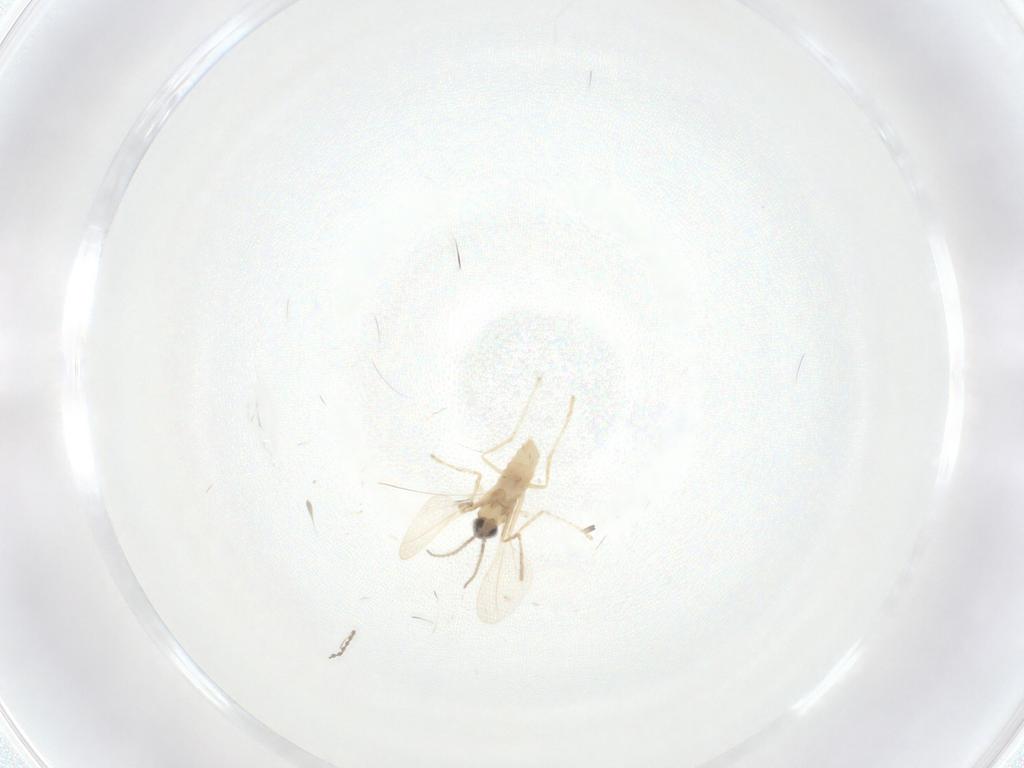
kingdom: Animalia
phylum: Arthropoda
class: Insecta
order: Diptera
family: Cecidomyiidae
